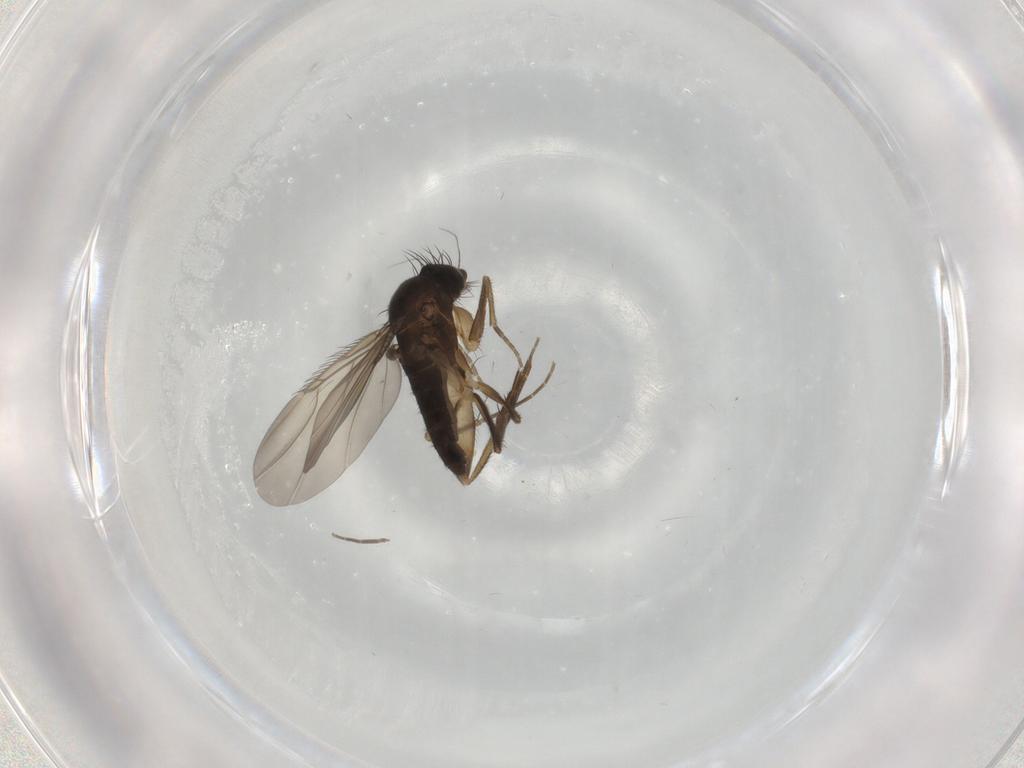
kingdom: Animalia
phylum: Arthropoda
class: Insecta
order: Diptera
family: Phoridae
